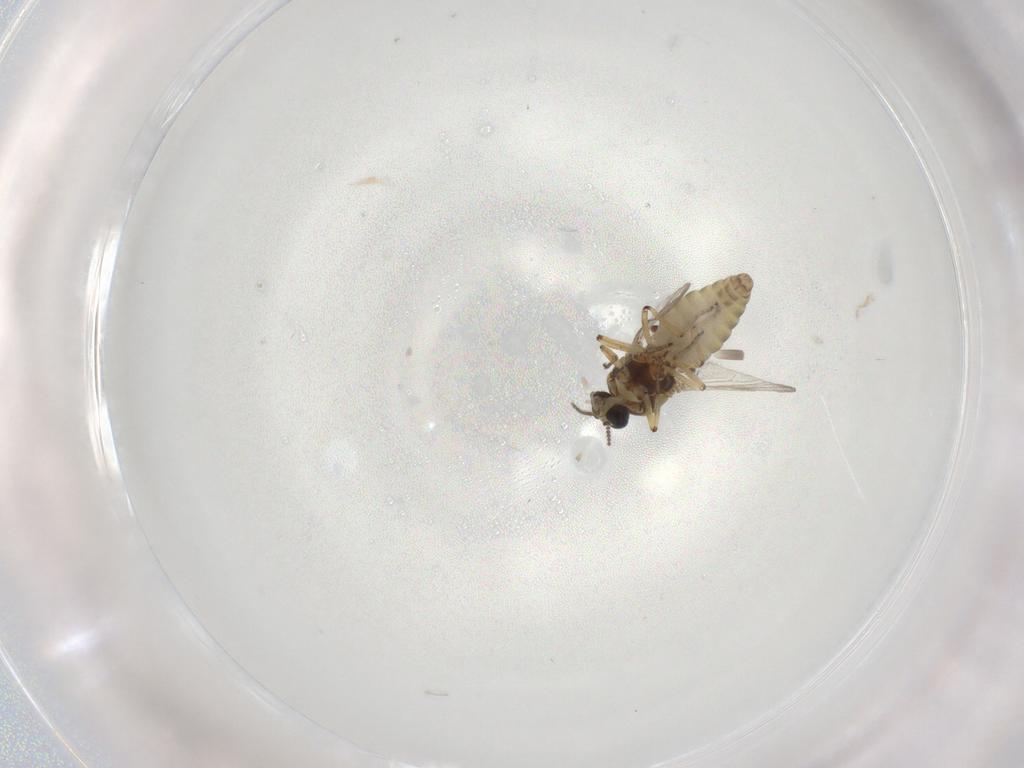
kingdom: Animalia
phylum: Arthropoda
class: Insecta
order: Diptera
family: Ceratopogonidae
